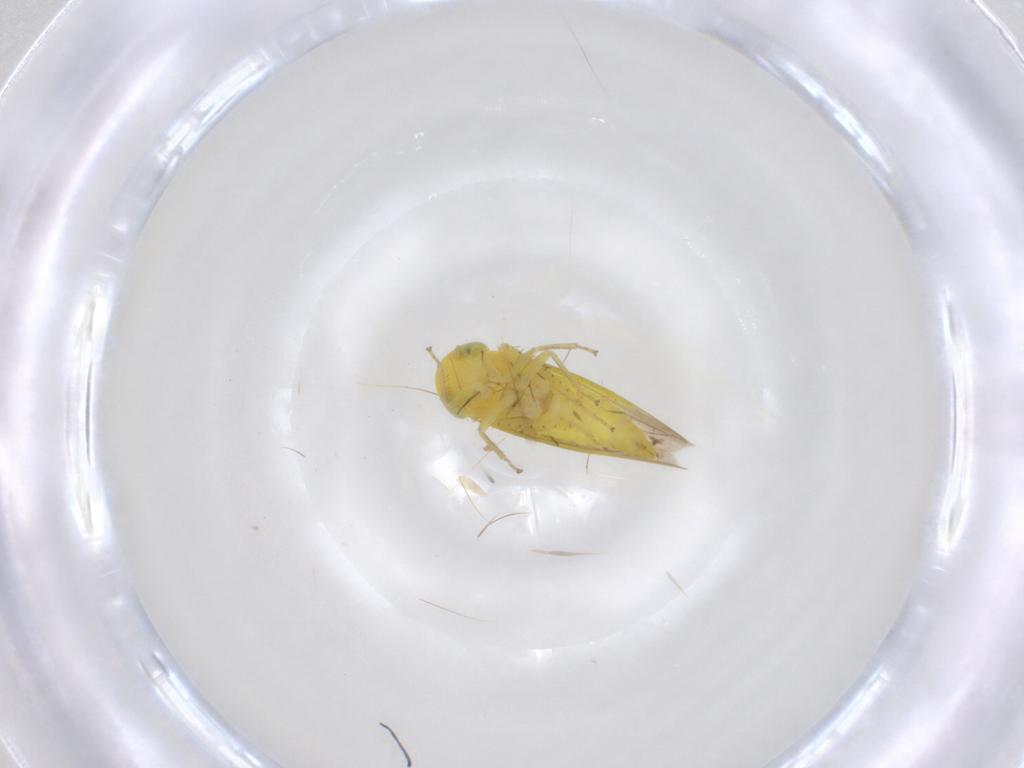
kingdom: Animalia
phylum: Arthropoda
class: Insecta
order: Hemiptera
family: Cicadellidae
